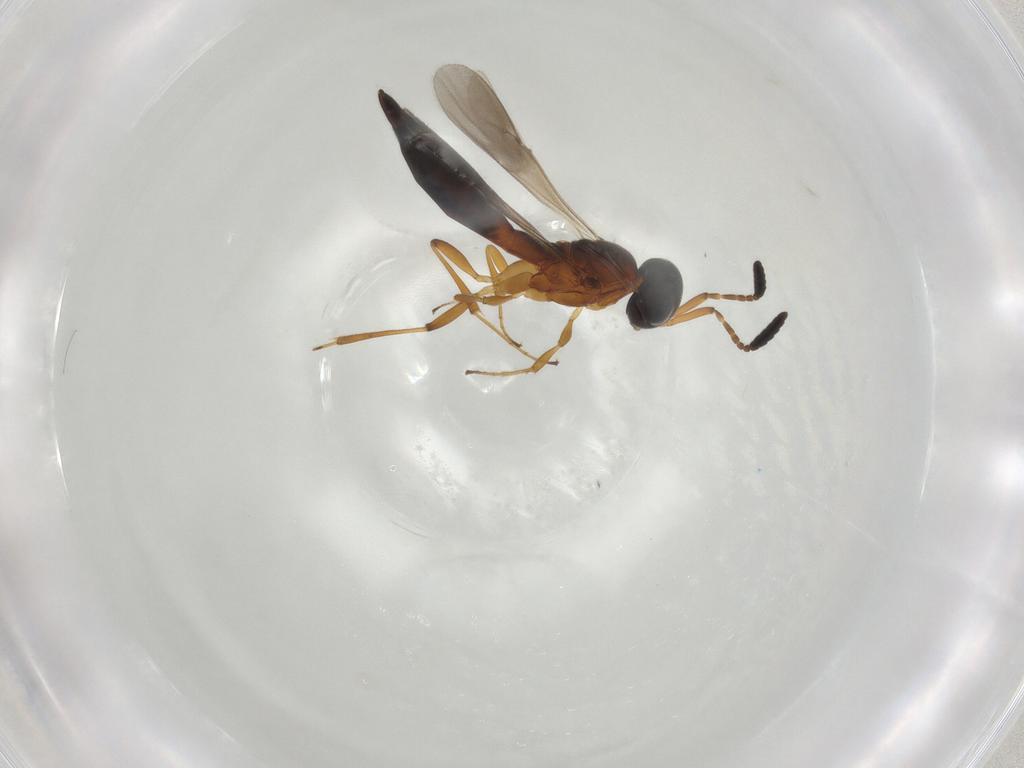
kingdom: Animalia
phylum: Arthropoda
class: Insecta
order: Hymenoptera
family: Scelionidae
